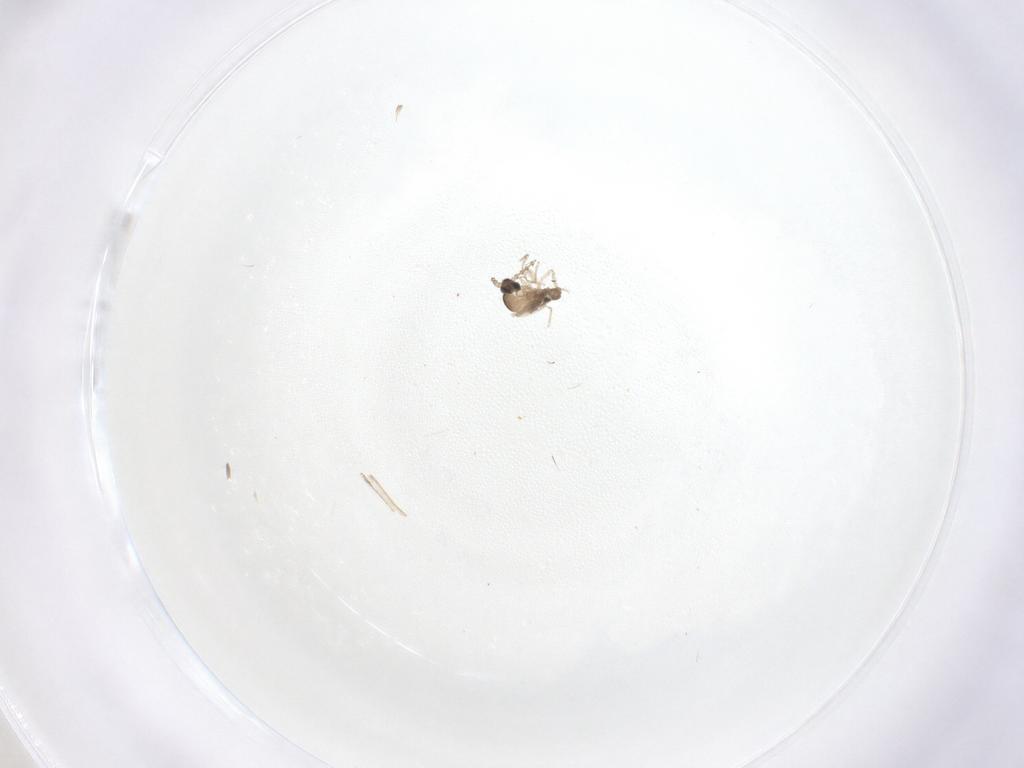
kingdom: Animalia
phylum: Arthropoda
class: Insecta
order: Diptera
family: Cecidomyiidae
